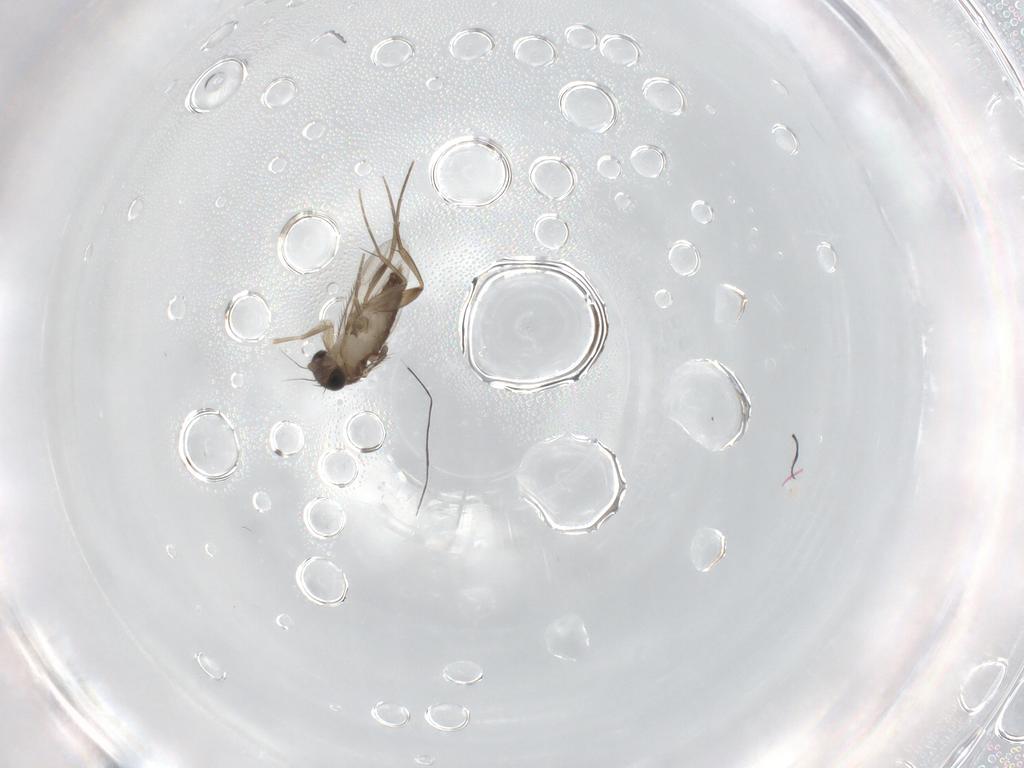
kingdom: Animalia
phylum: Arthropoda
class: Insecta
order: Diptera
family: Phoridae
